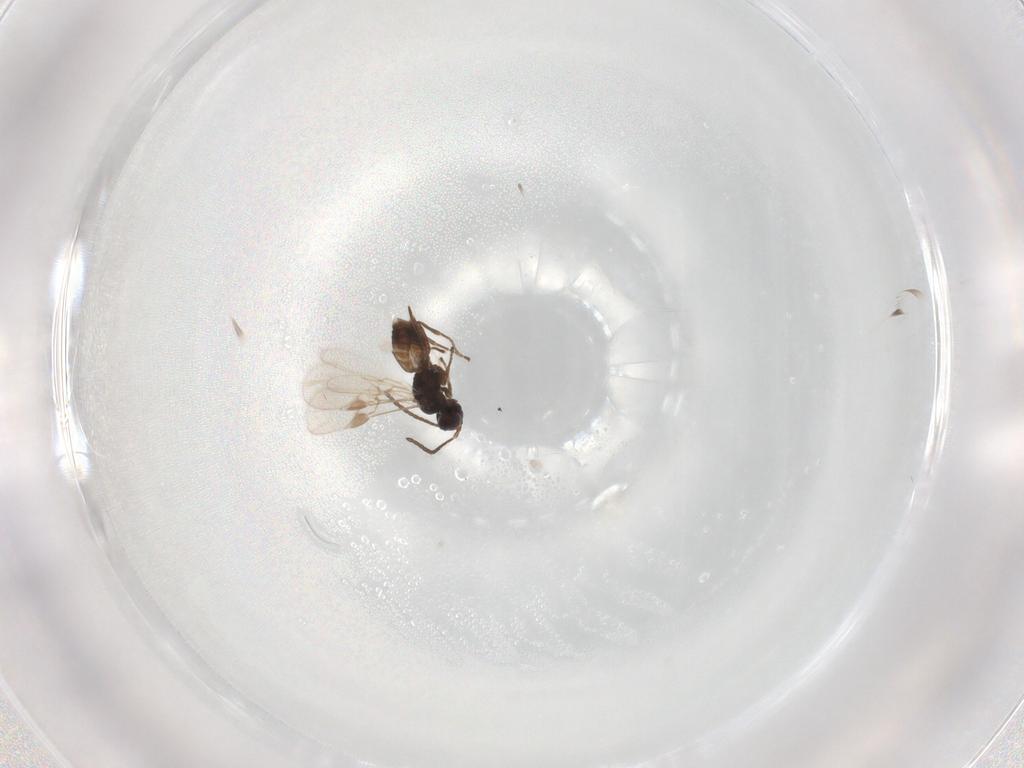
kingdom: Animalia
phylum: Arthropoda
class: Insecta
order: Hymenoptera
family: Braconidae
